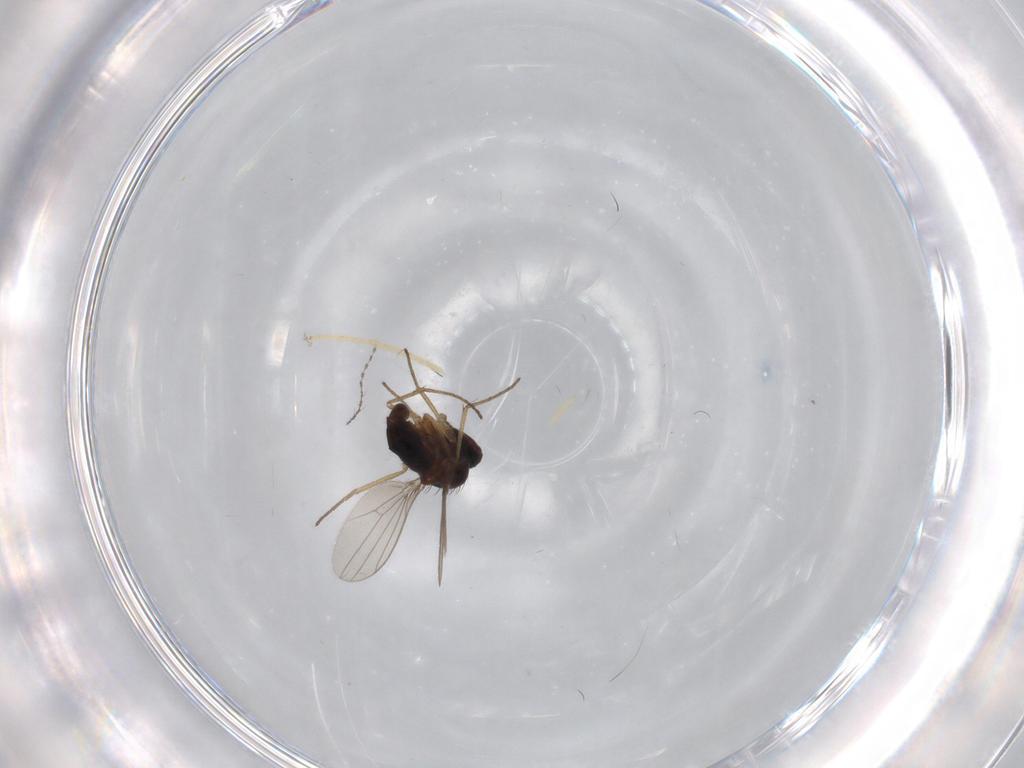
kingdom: Animalia
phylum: Arthropoda
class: Insecta
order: Diptera
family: Dolichopodidae
